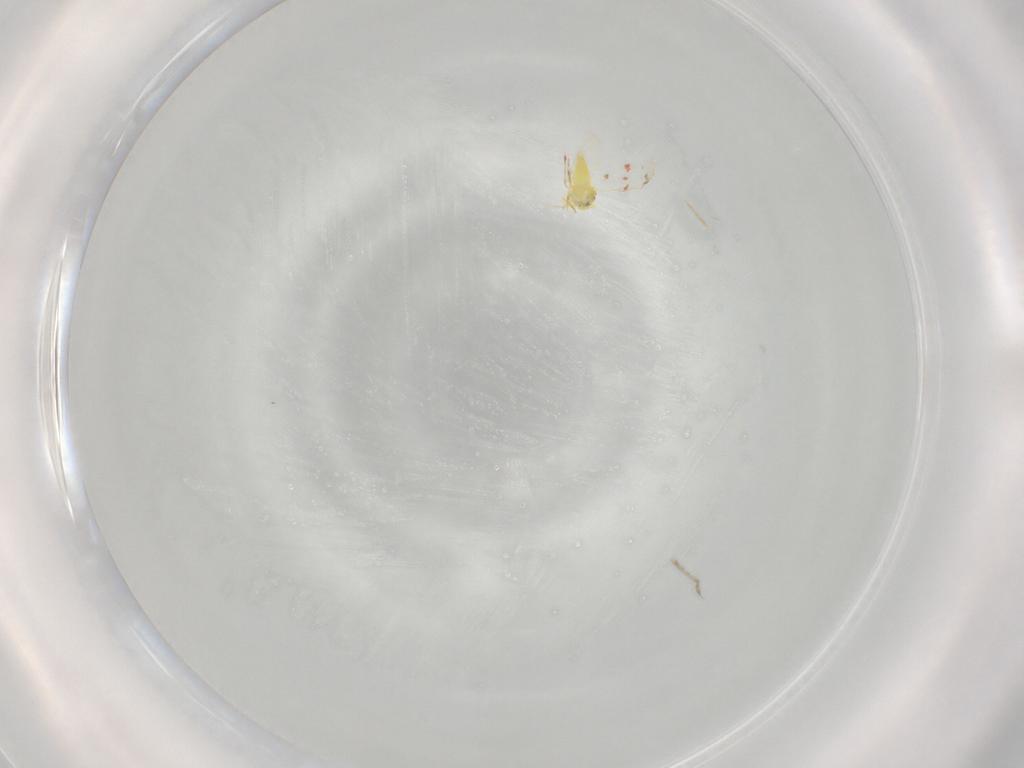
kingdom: Animalia
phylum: Arthropoda
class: Insecta
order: Hemiptera
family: Aleyrodidae
